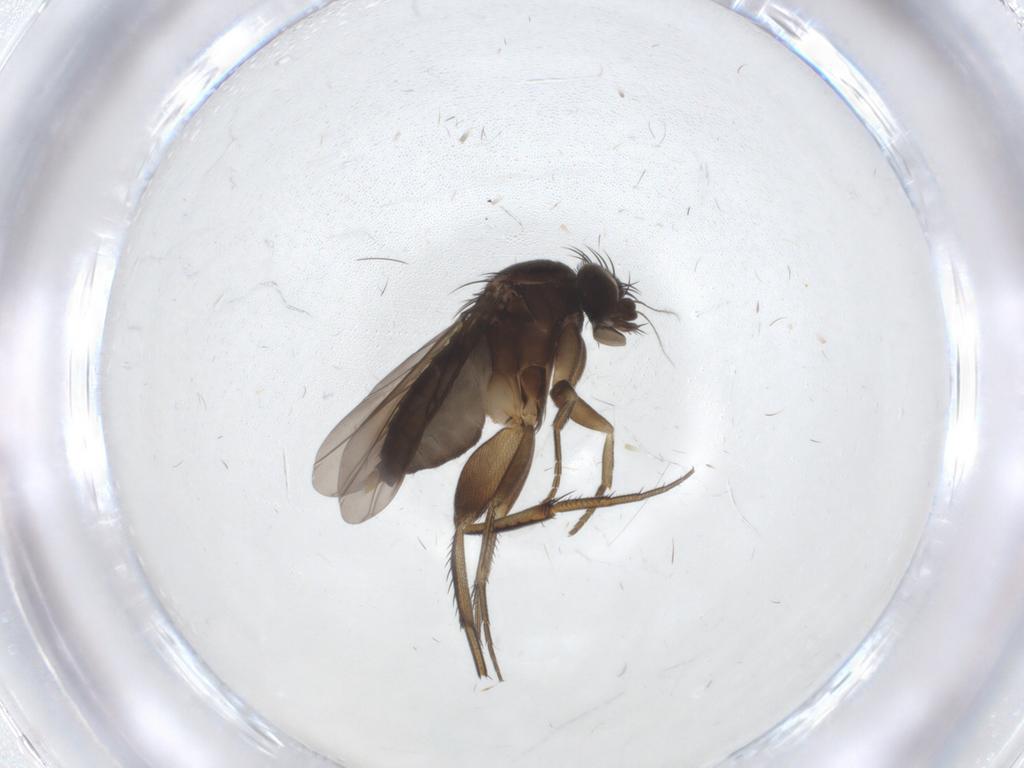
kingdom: Animalia
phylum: Arthropoda
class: Insecta
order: Diptera
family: Phoridae
